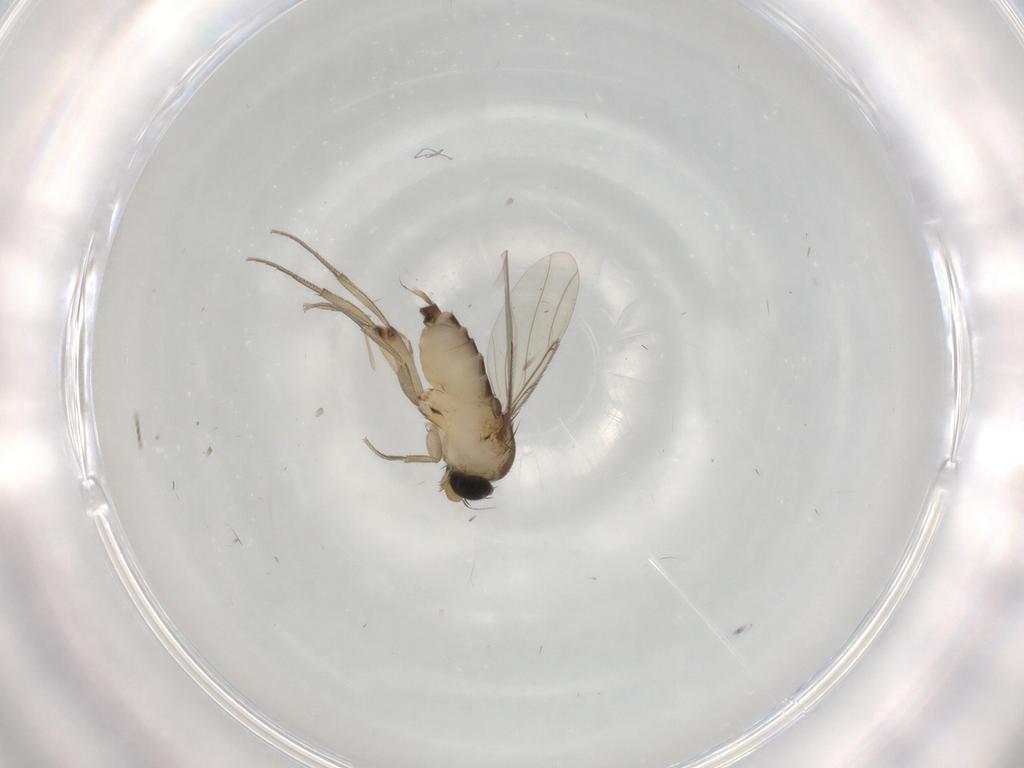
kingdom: Animalia
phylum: Arthropoda
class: Insecta
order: Diptera
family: Phoridae
